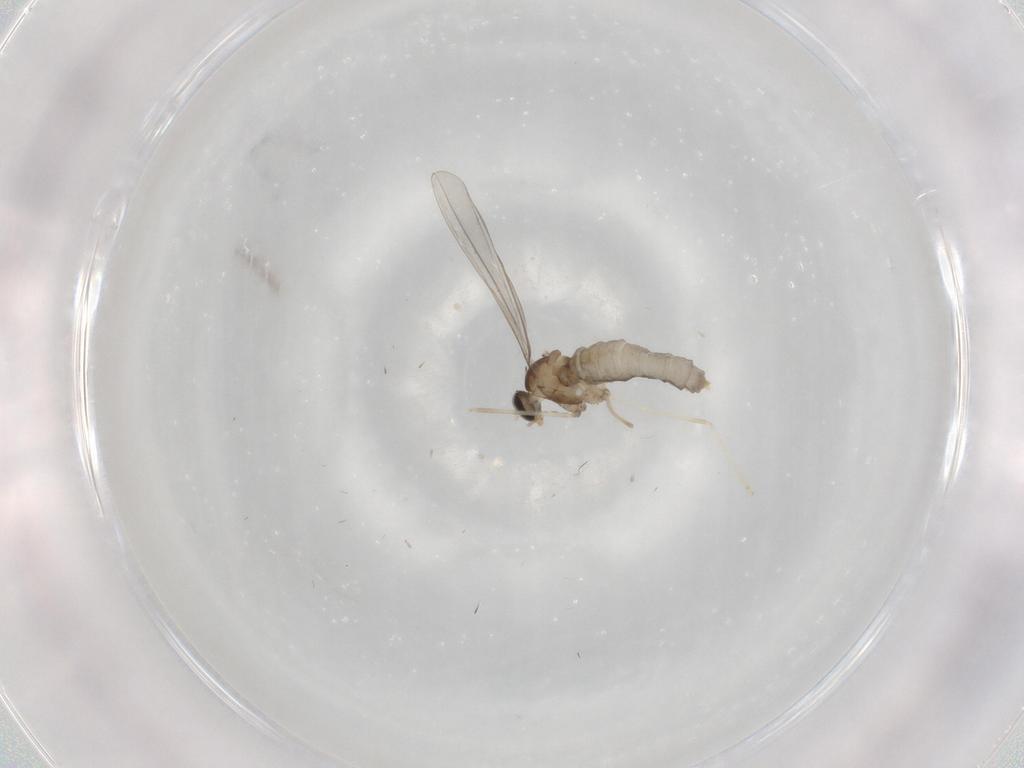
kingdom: Animalia
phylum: Arthropoda
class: Insecta
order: Diptera
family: Cecidomyiidae
